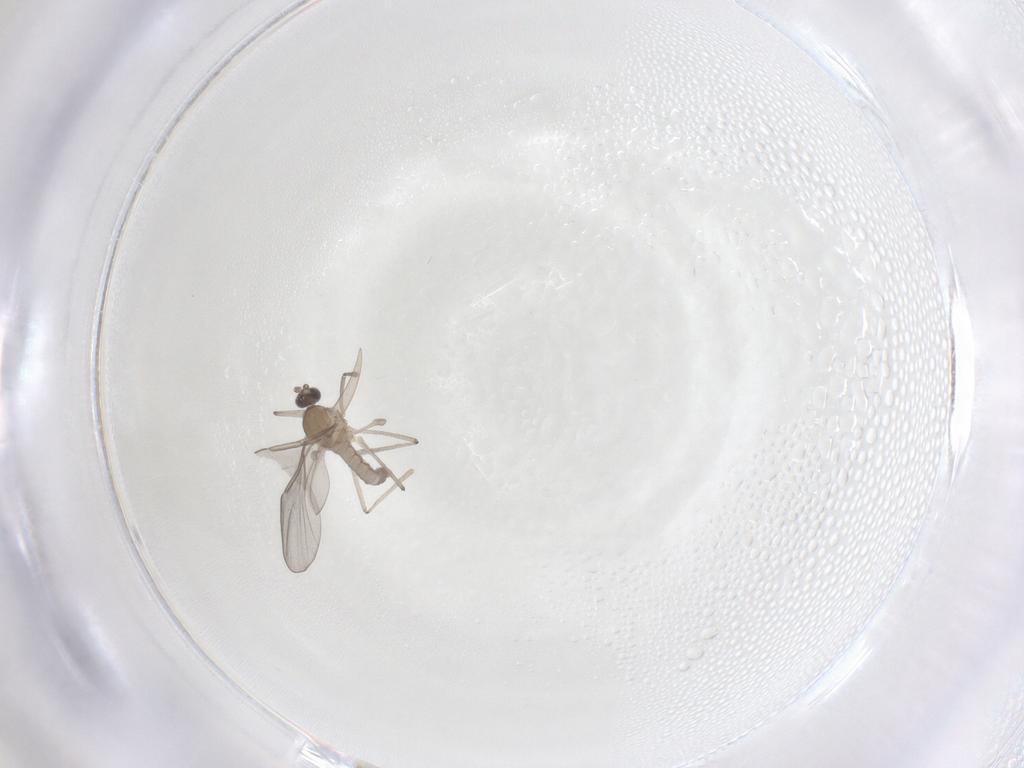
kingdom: Animalia
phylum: Arthropoda
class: Insecta
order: Diptera
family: Cecidomyiidae
